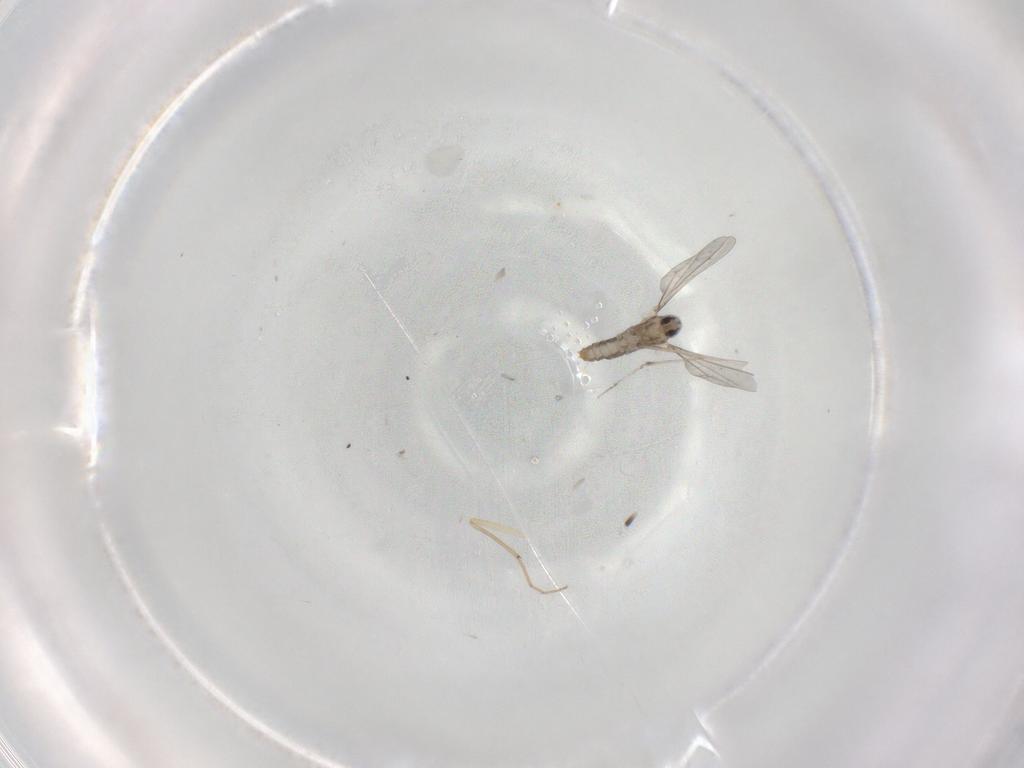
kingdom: Animalia
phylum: Arthropoda
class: Insecta
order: Diptera
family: Cecidomyiidae
